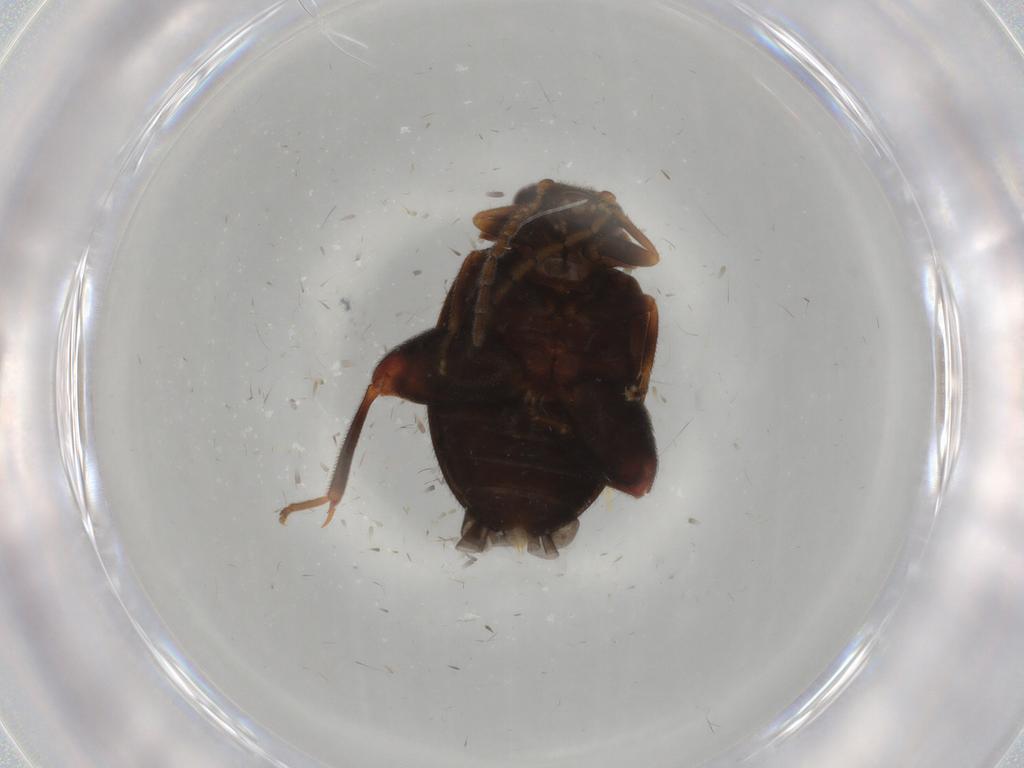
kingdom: Animalia
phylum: Arthropoda
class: Insecta
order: Coleoptera
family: Scirtidae
